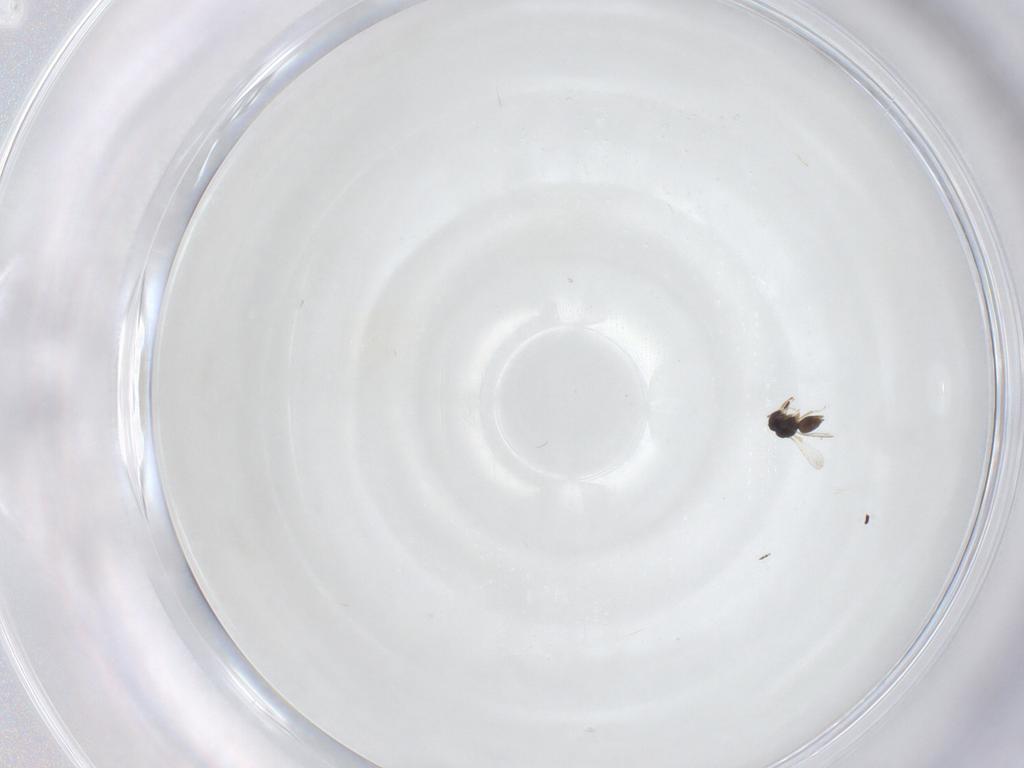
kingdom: Animalia
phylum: Arthropoda
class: Insecta
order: Hymenoptera
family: Scelionidae
